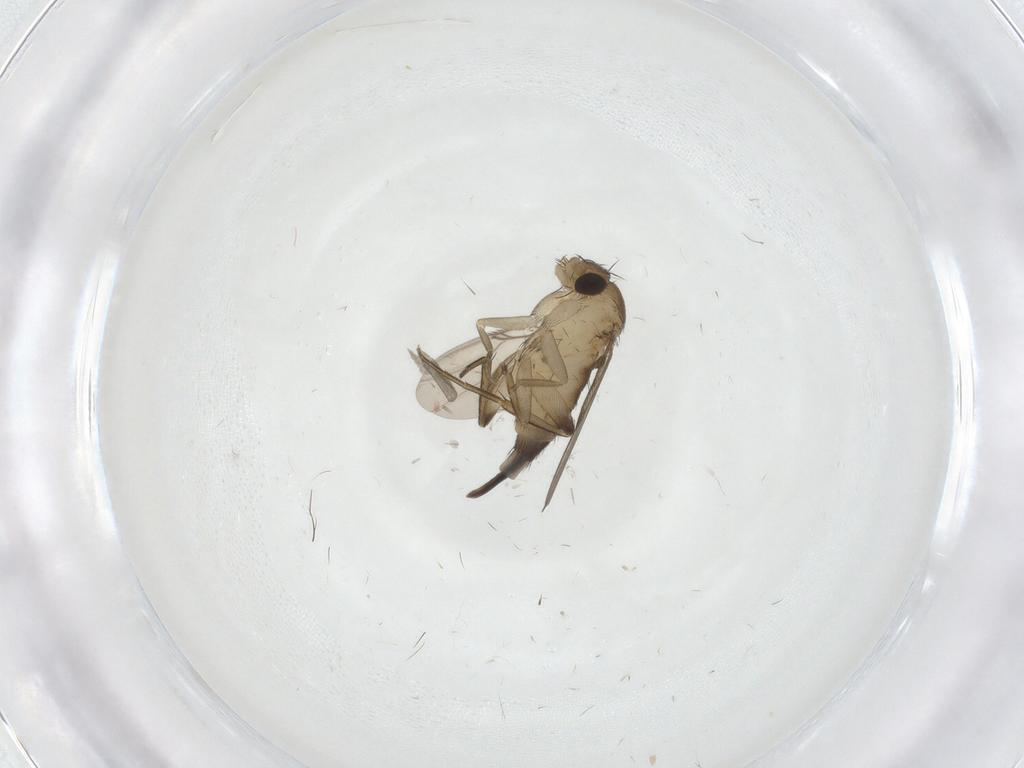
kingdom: Animalia
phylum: Arthropoda
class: Insecta
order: Diptera
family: Phoridae
